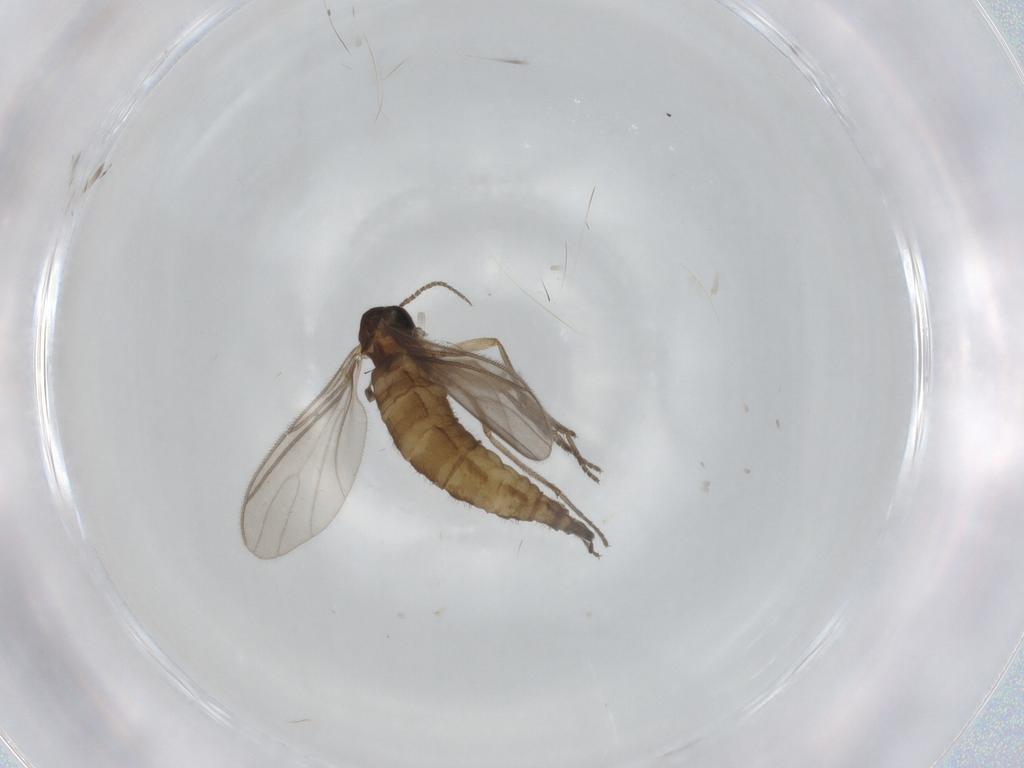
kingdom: Animalia
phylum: Arthropoda
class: Insecta
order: Diptera
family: Sciaridae
